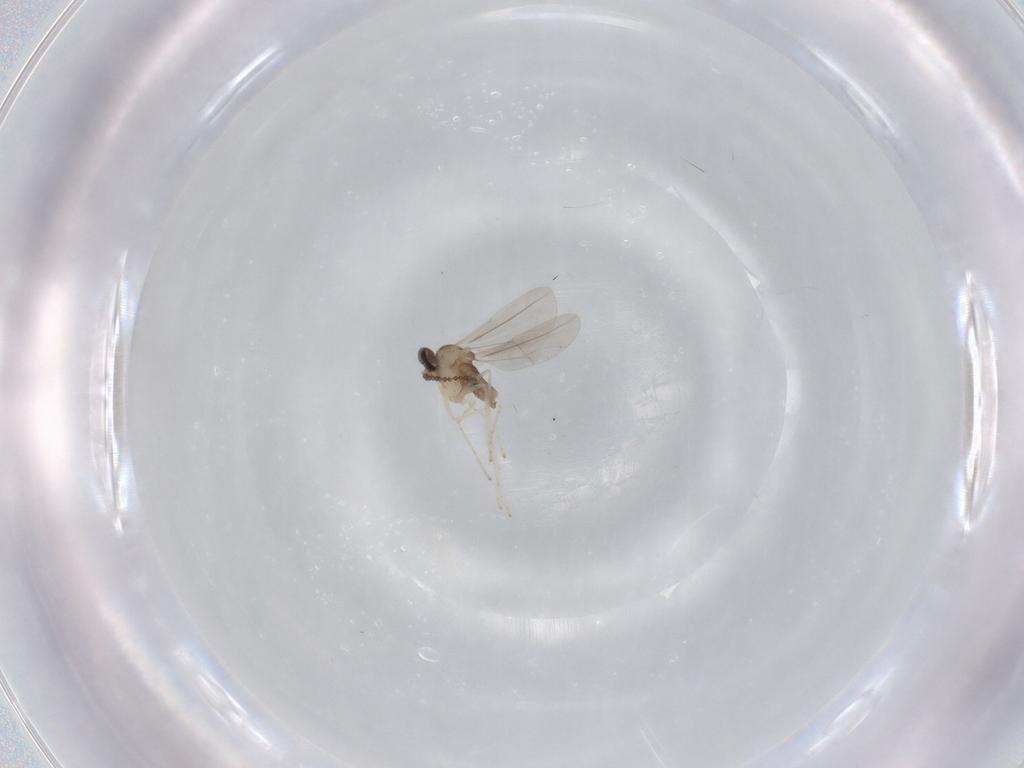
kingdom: Animalia
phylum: Arthropoda
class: Insecta
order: Diptera
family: Cecidomyiidae
